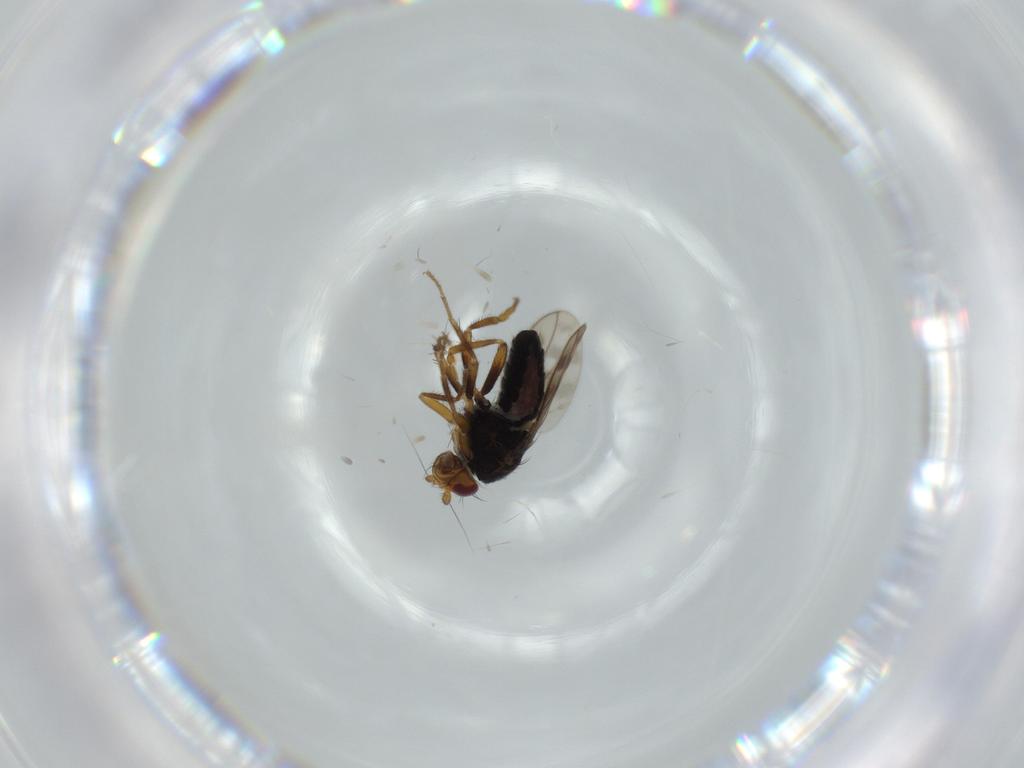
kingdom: Animalia
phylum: Arthropoda
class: Insecta
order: Diptera
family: Sphaeroceridae
